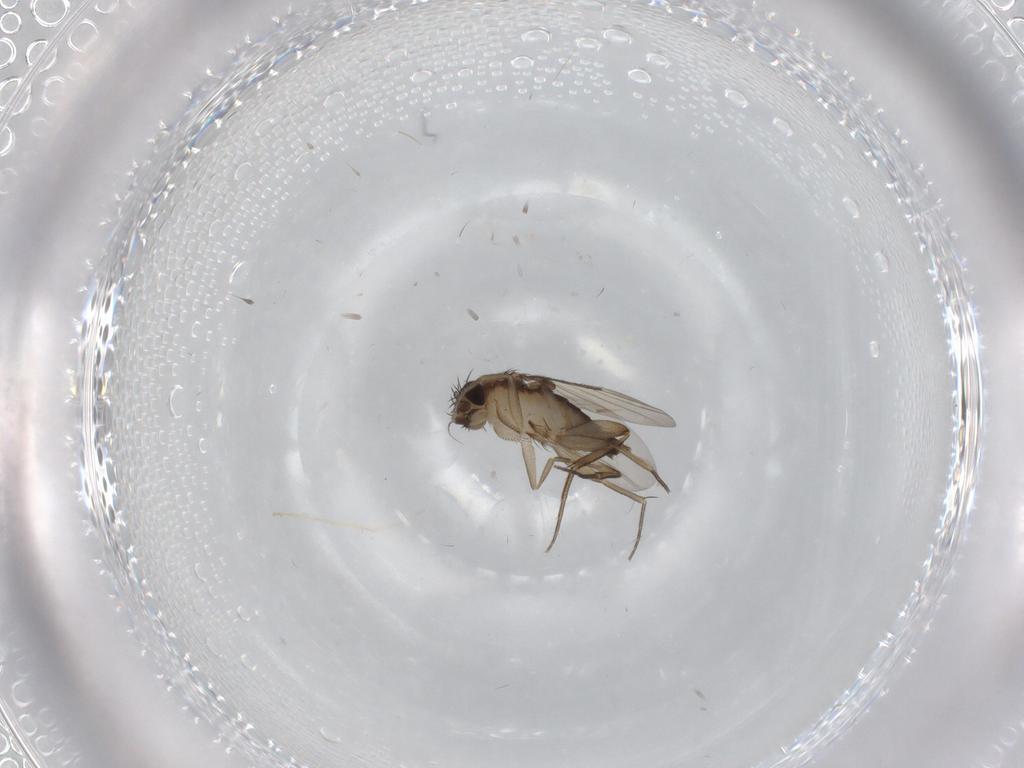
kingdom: Animalia
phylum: Arthropoda
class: Insecta
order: Diptera
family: Phoridae
